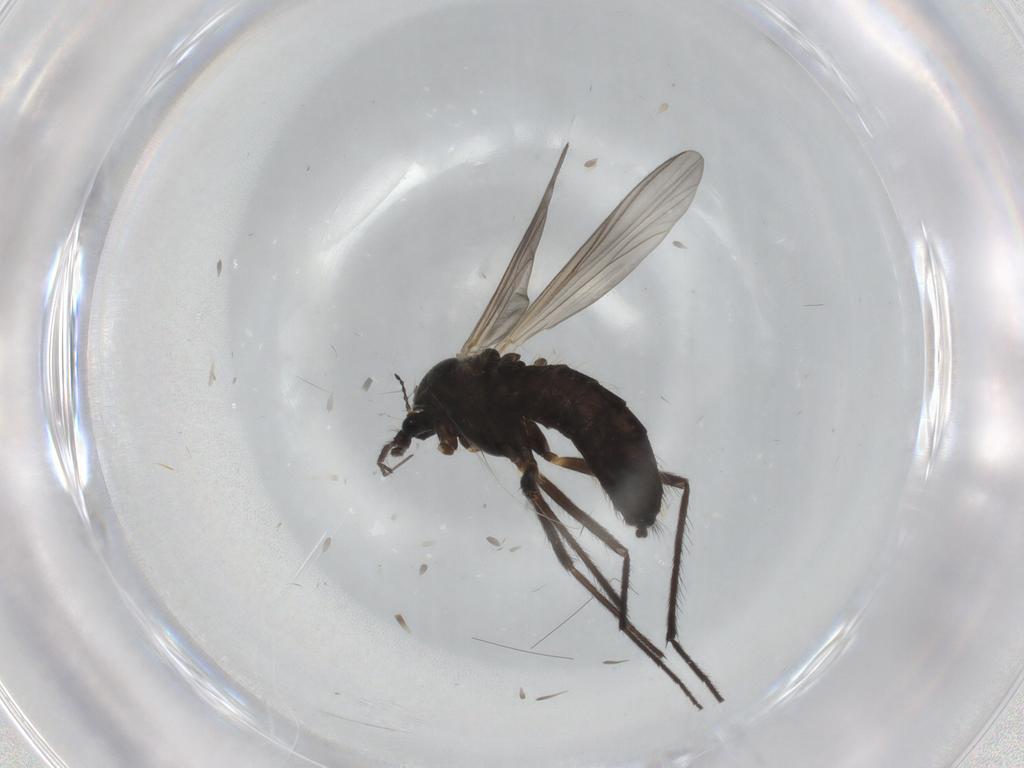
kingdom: Animalia
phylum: Arthropoda
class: Insecta
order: Diptera
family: Chironomidae
